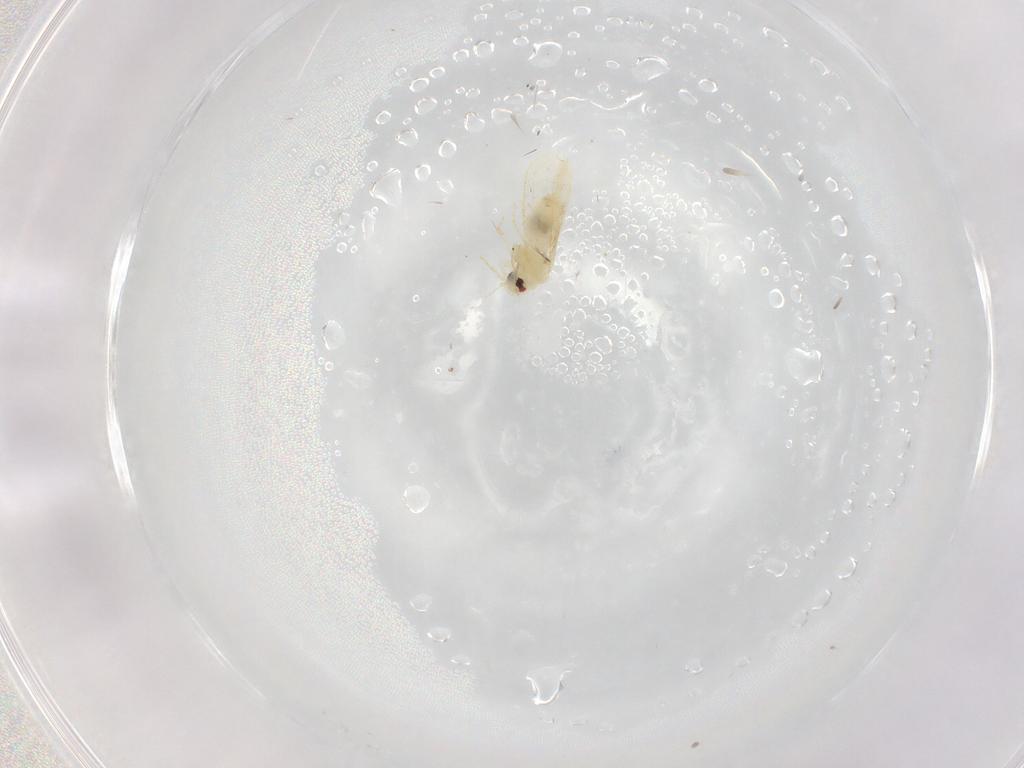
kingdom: Animalia
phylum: Arthropoda
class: Insecta
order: Hemiptera
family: Aleyrodidae
